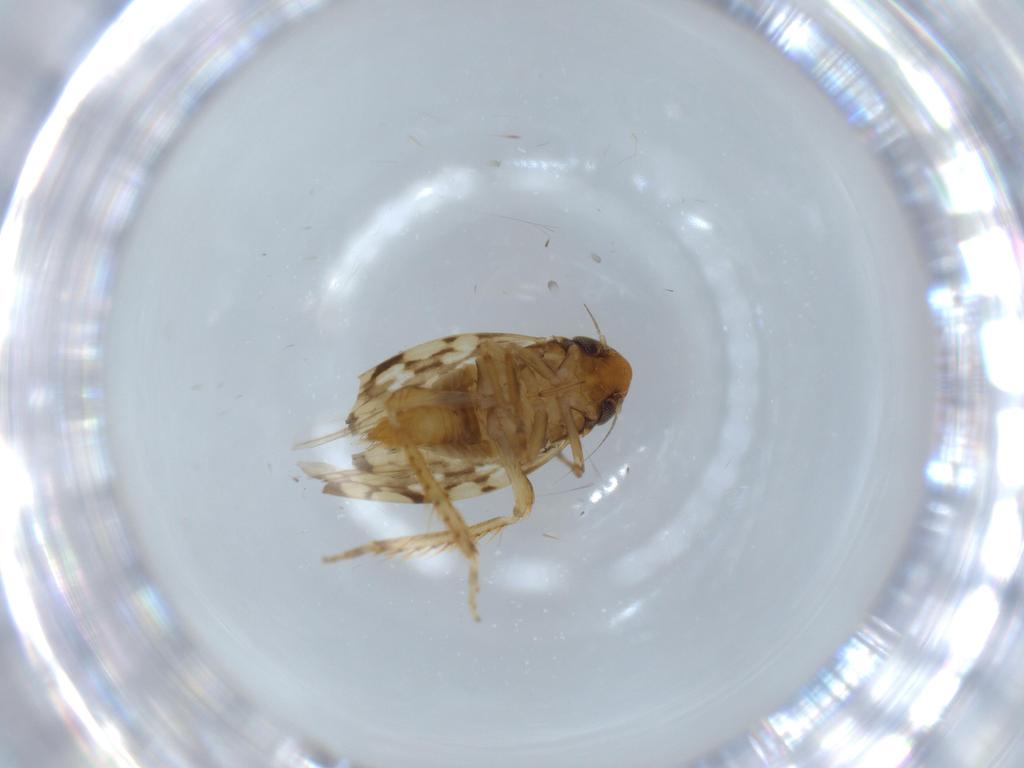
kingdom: Animalia
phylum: Arthropoda
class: Insecta
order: Hemiptera
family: Cicadellidae
